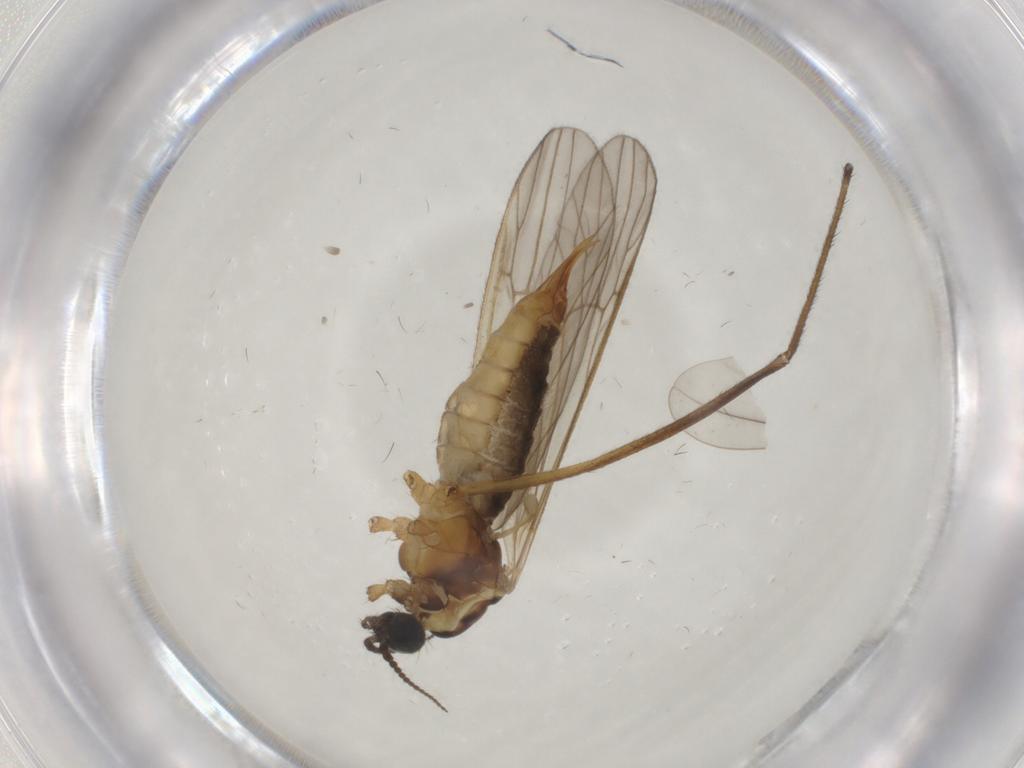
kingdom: Animalia
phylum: Arthropoda
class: Insecta
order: Diptera
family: Agromyzidae
